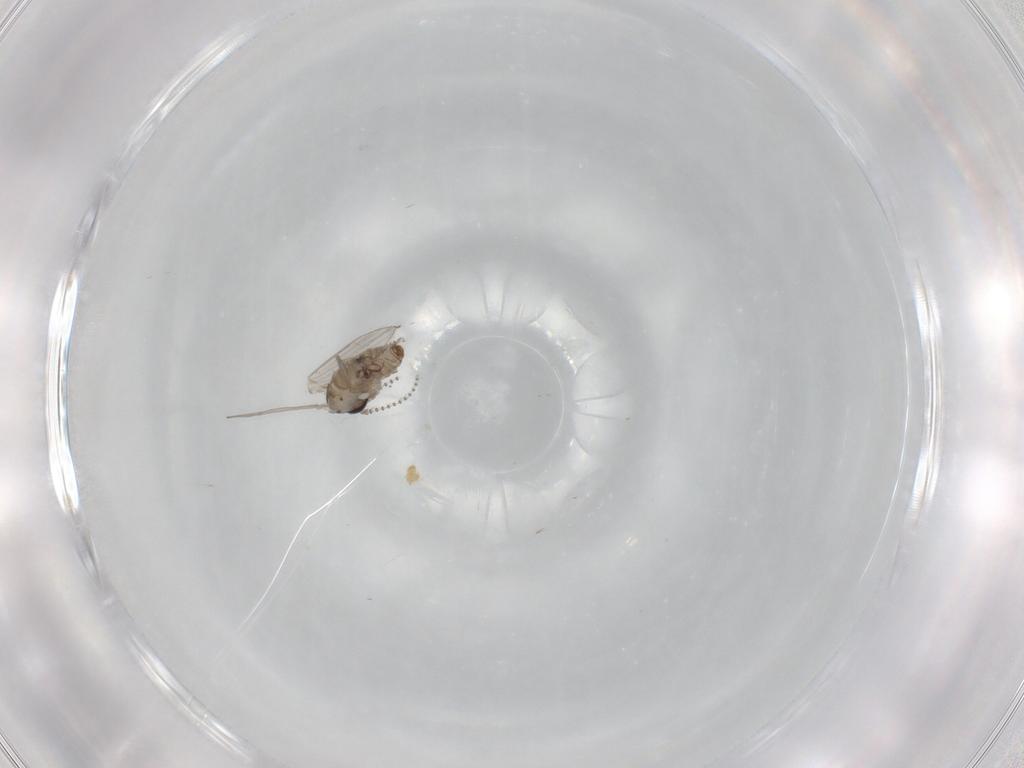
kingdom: Animalia
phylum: Arthropoda
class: Insecta
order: Diptera
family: Psychodidae
